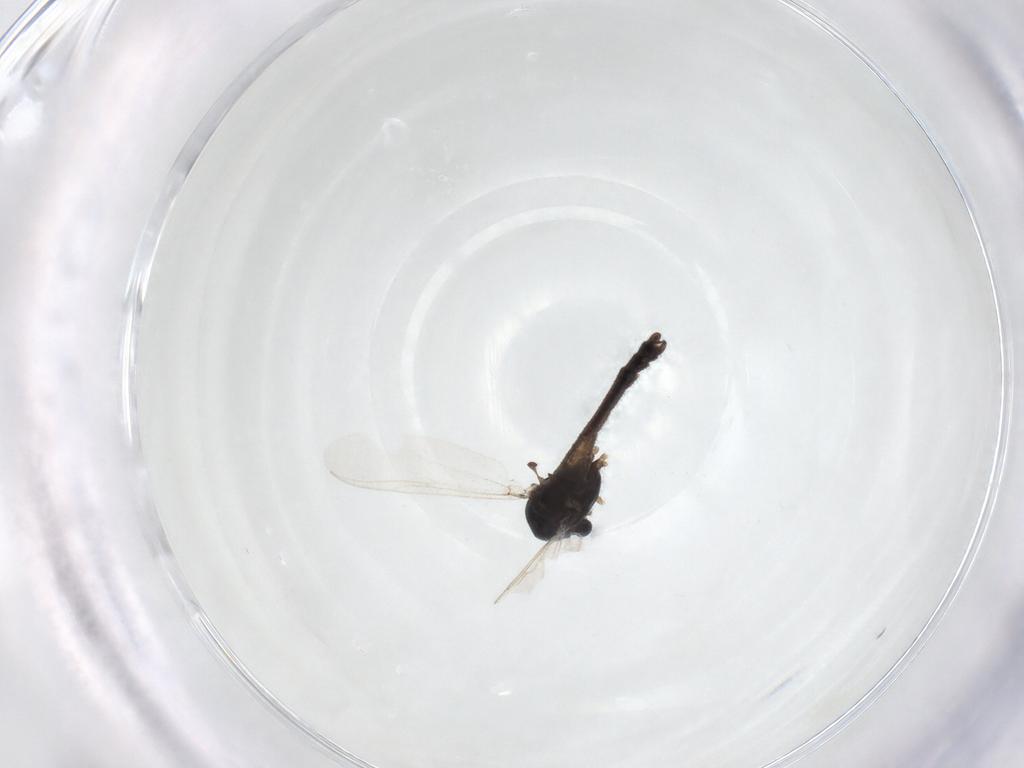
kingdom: Animalia
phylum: Arthropoda
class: Insecta
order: Diptera
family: Chironomidae
